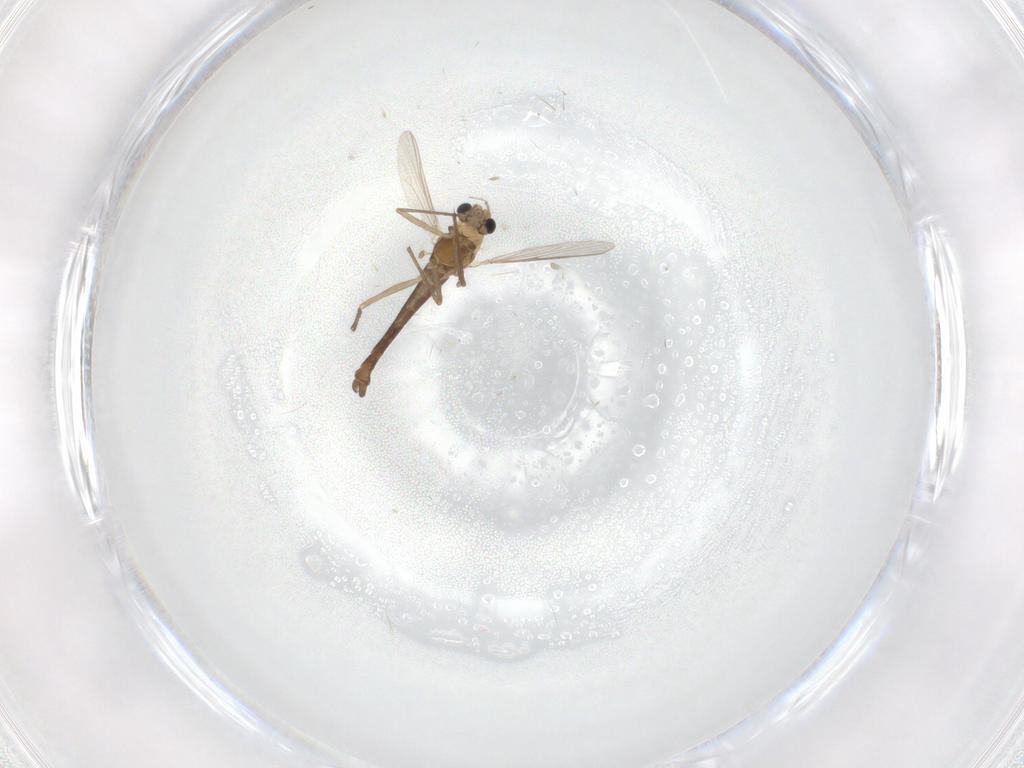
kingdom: Animalia
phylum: Arthropoda
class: Insecta
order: Diptera
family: Chironomidae
